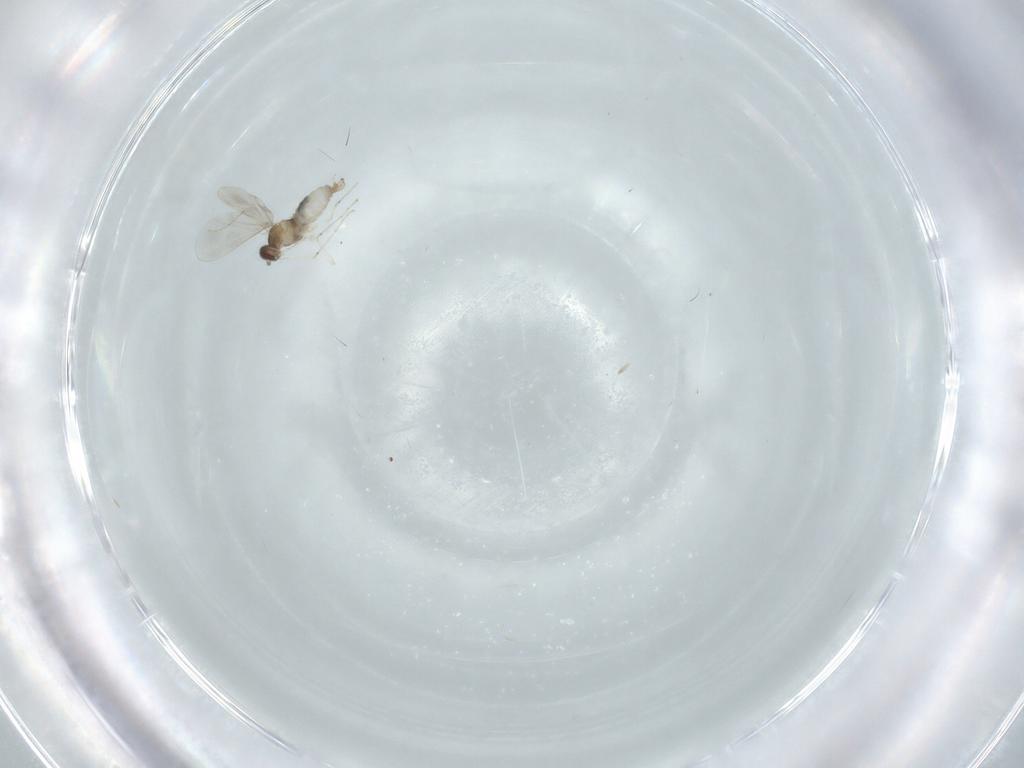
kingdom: Animalia
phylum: Arthropoda
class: Insecta
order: Diptera
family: Cecidomyiidae
